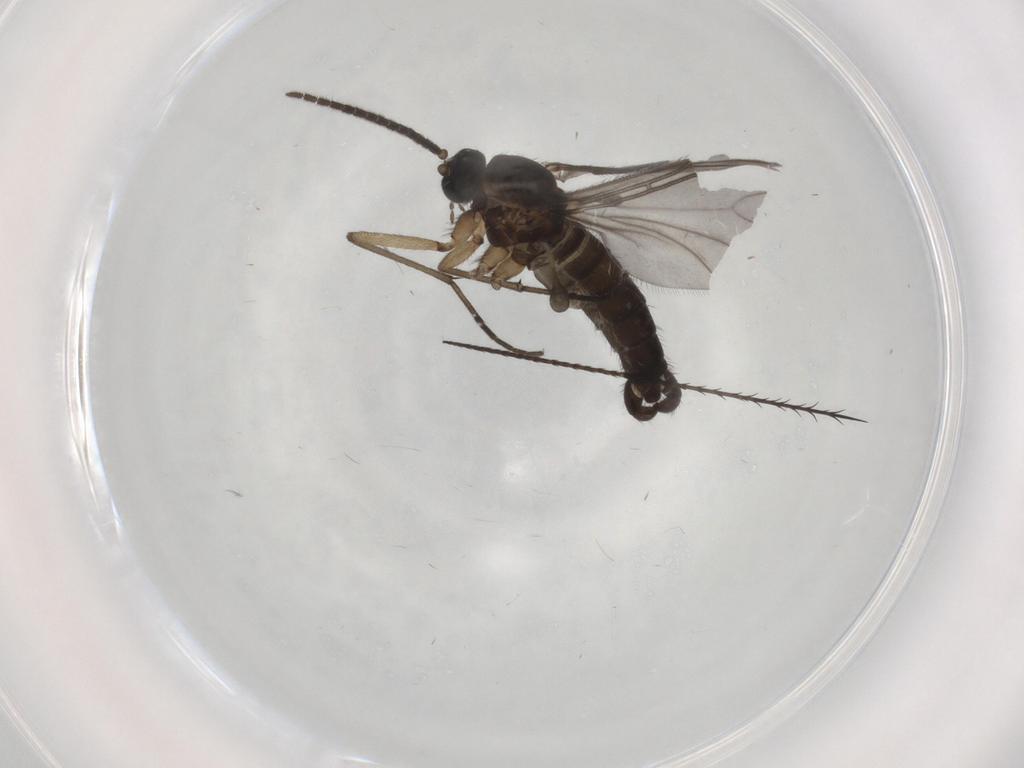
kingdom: Animalia
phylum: Arthropoda
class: Insecta
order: Diptera
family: Sciaridae
